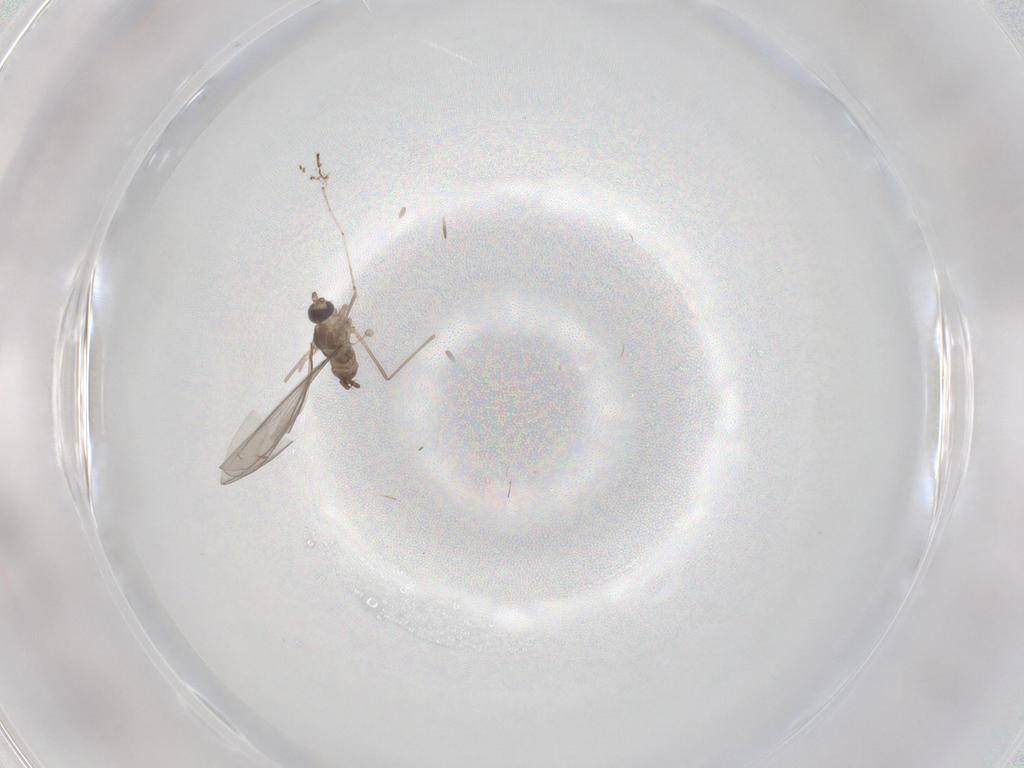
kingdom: Animalia
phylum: Arthropoda
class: Insecta
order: Diptera
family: Cecidomyiidae
